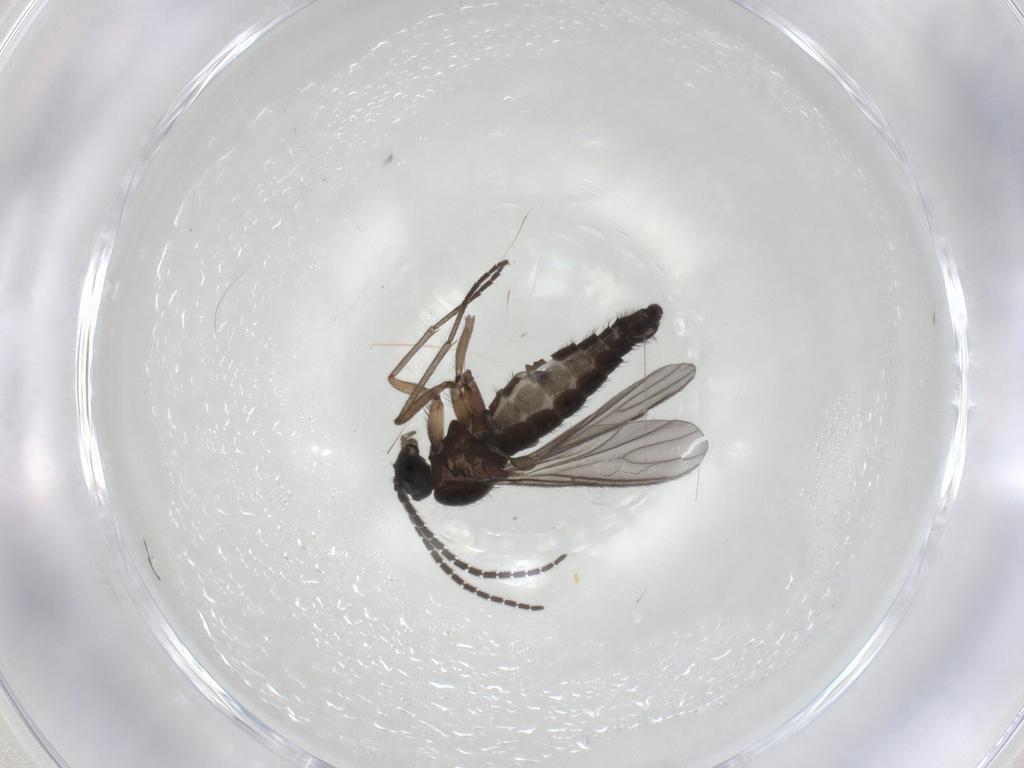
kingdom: Animalia
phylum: Arthropoda
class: Insecta
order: Diptera
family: Sciaridae
